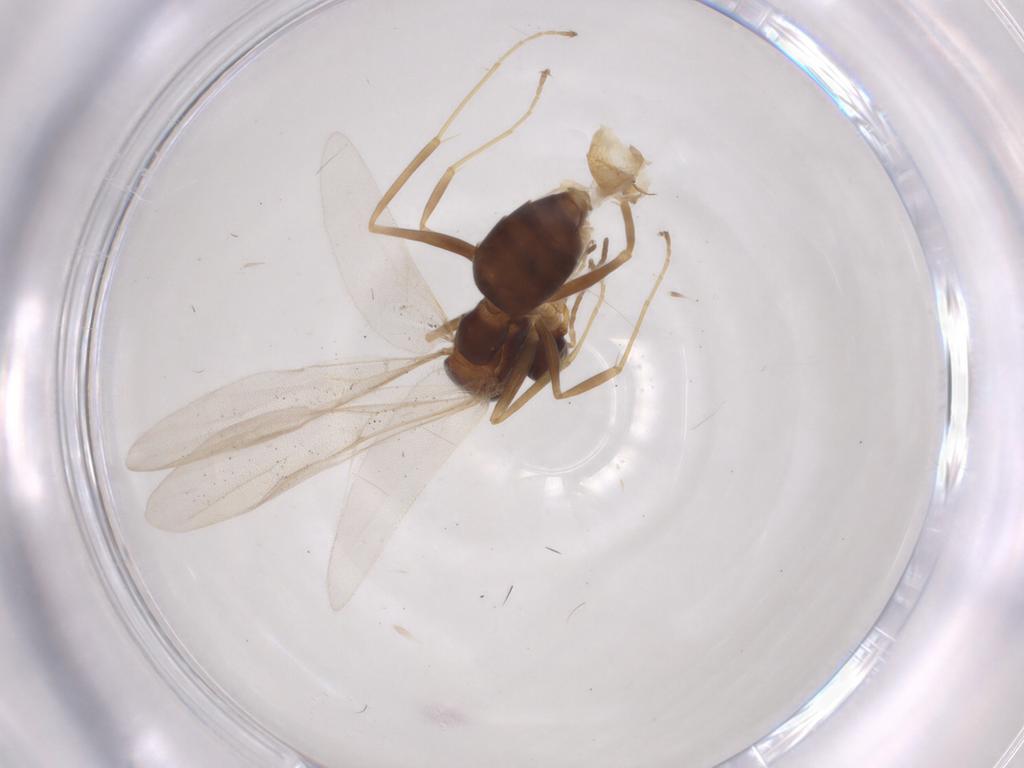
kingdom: Animalia
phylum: Arthropoda
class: Insecta
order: Hymenoptera
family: Formicidae
